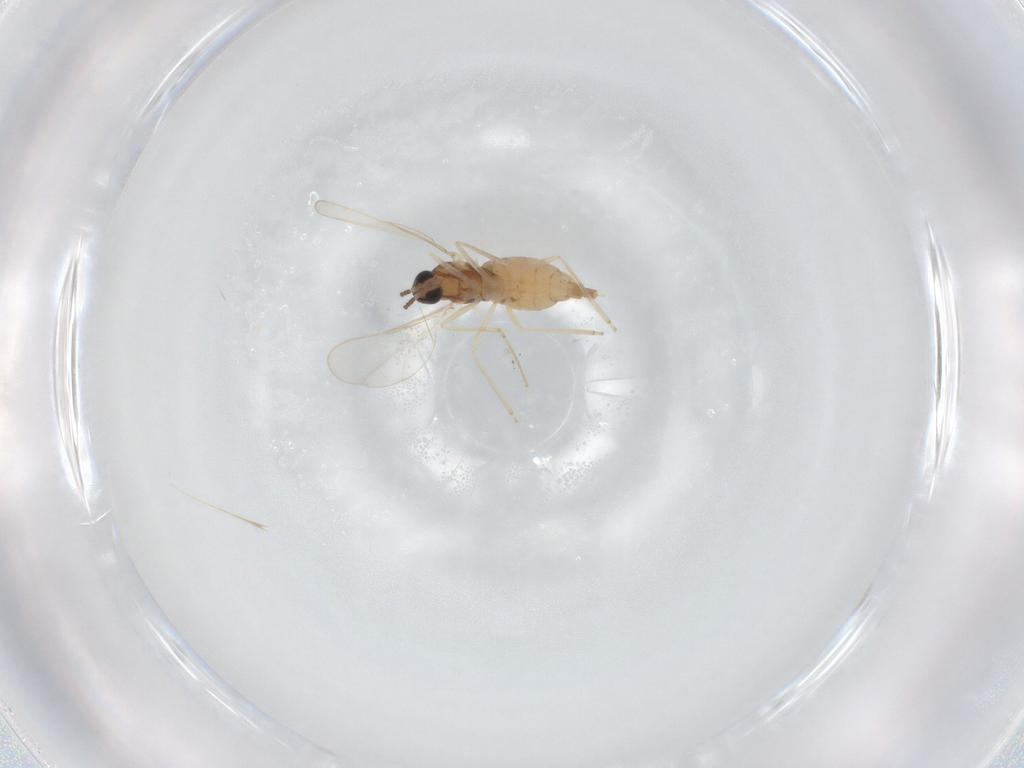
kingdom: Animalia
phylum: Arthropoda
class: Insecta
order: Diptera
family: Cecidomyiidae
